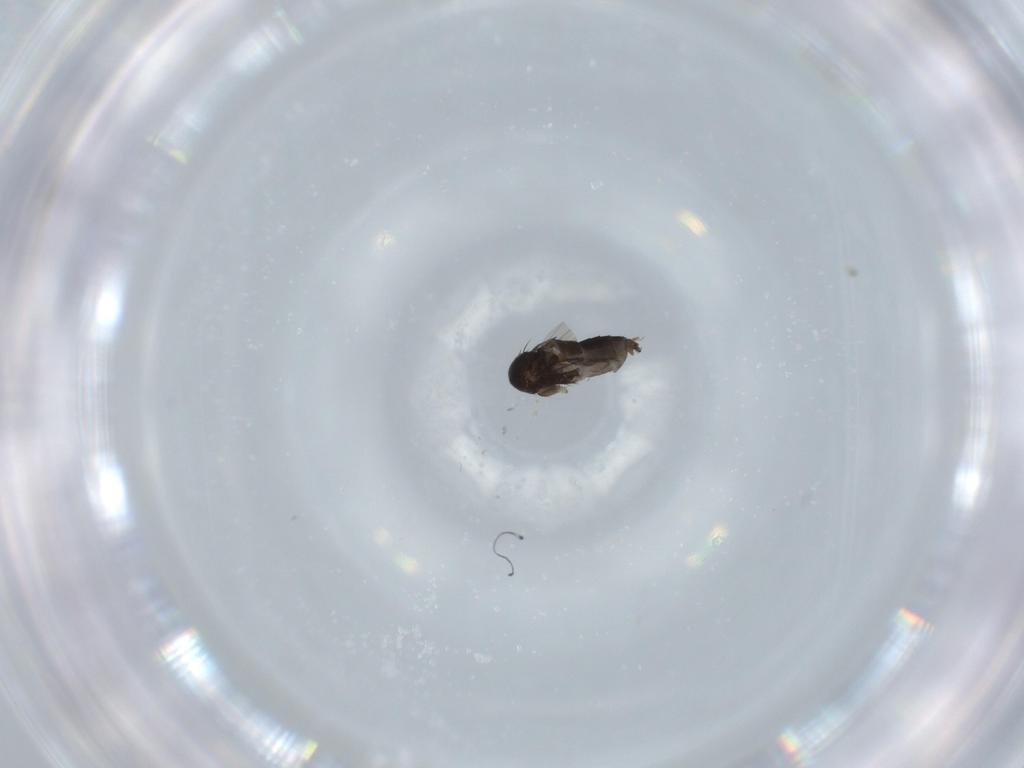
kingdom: Animalia
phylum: Arthropoda
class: Insecta
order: Diptera
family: Phoridae
